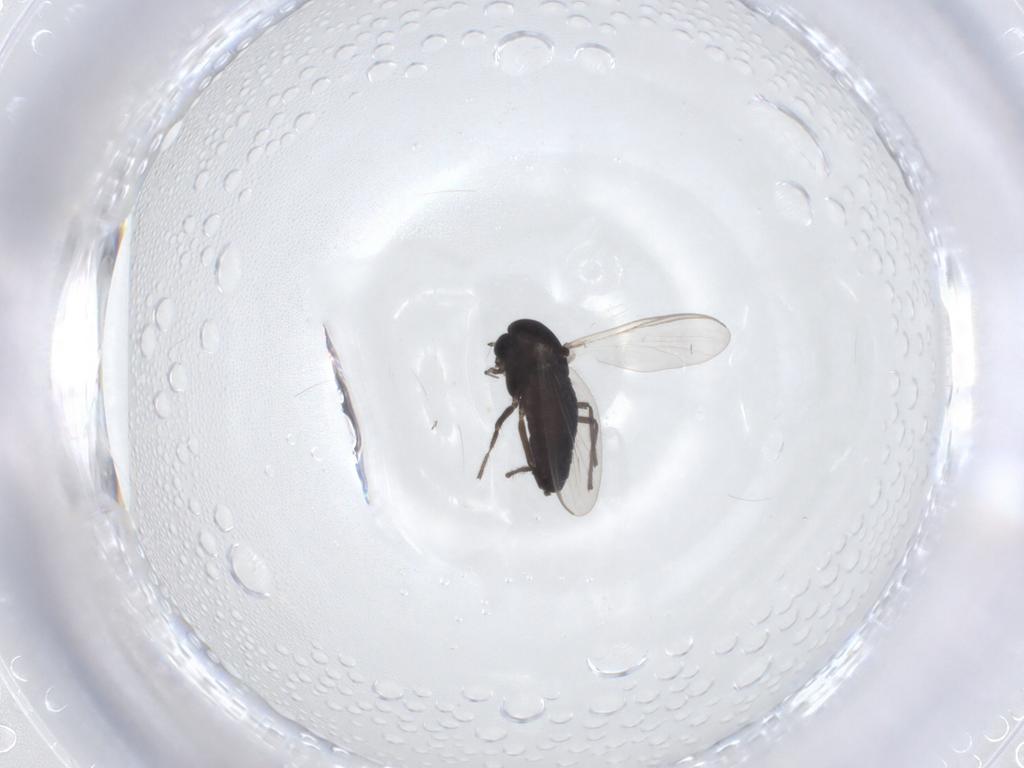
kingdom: Animalia
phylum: Arthropoda
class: Insecta
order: Diptera
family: Chironomidae
